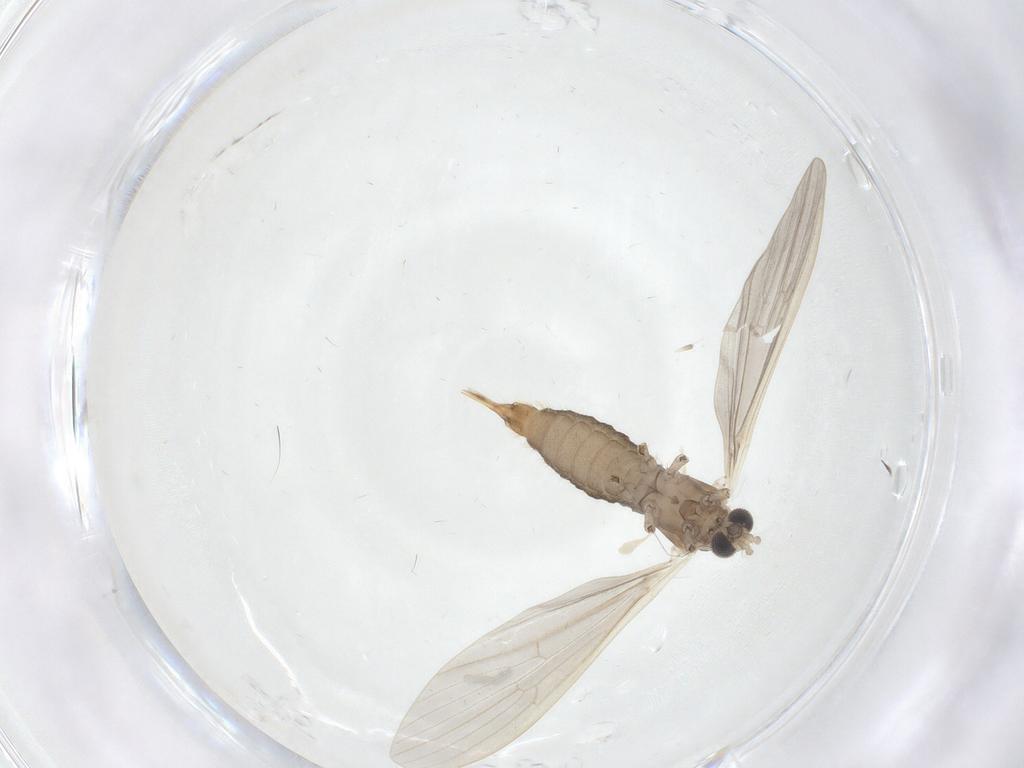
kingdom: Animalia
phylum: Arthropoda
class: Insecta
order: Diptera
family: Limoniidae
